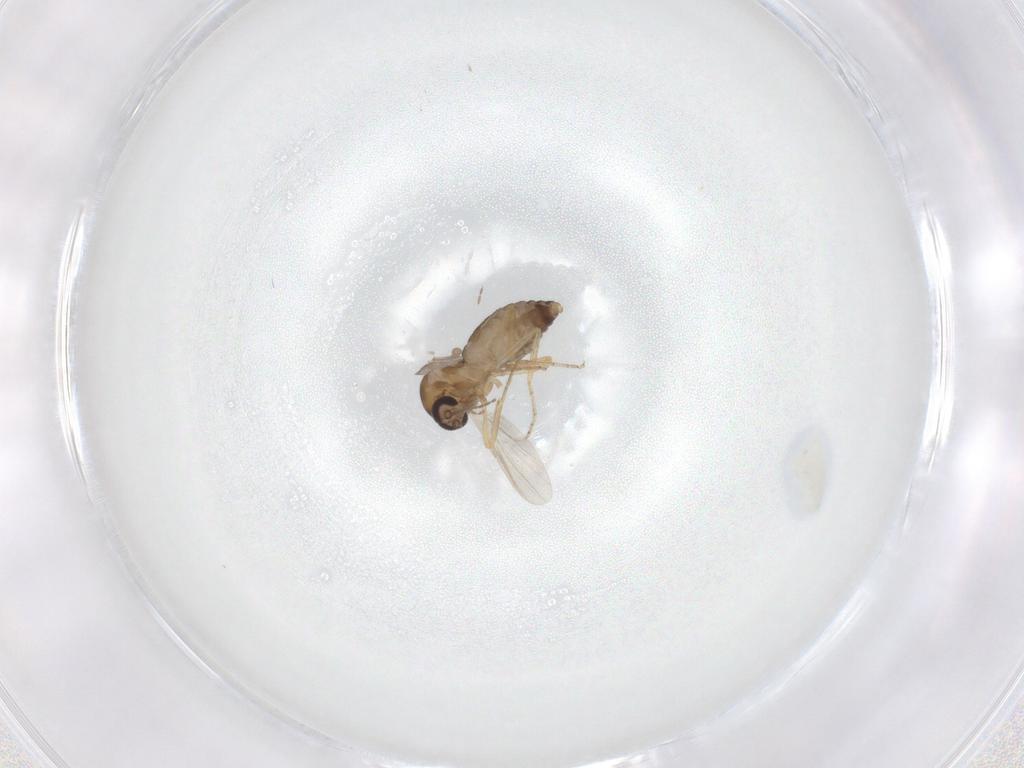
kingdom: Animalia
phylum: Arthropoda
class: Insecta
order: Diptera
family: Ceratopogonidae
